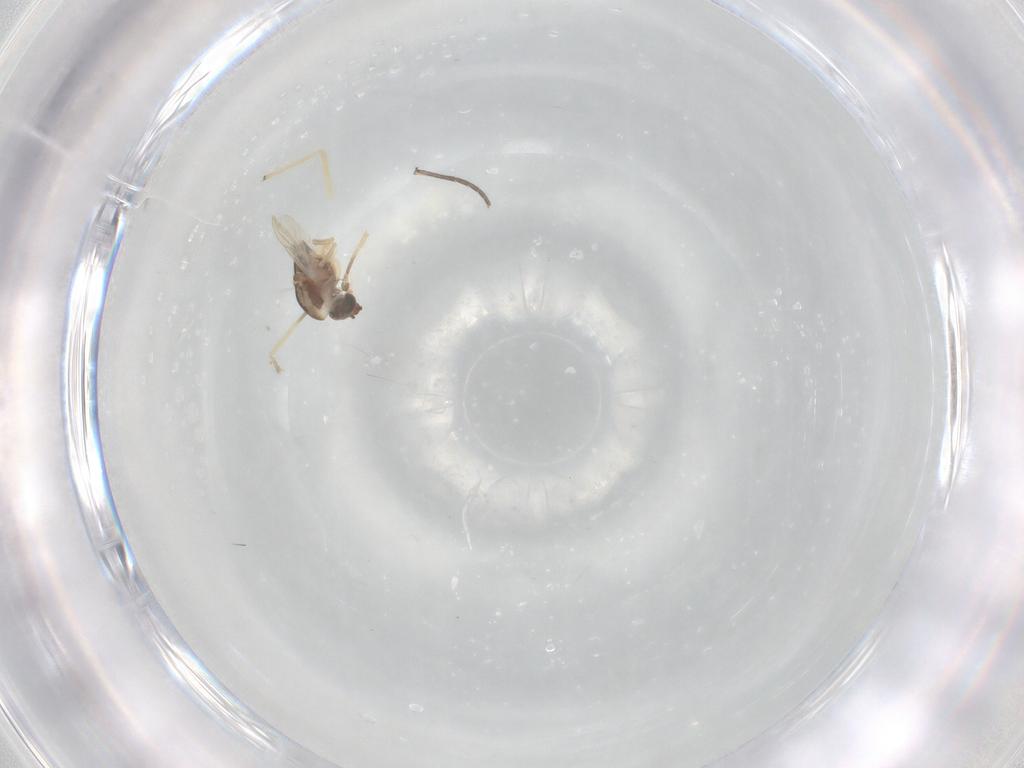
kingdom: Animalia
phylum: Arthropoda
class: Insecta
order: Diptera
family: Chironomidae
